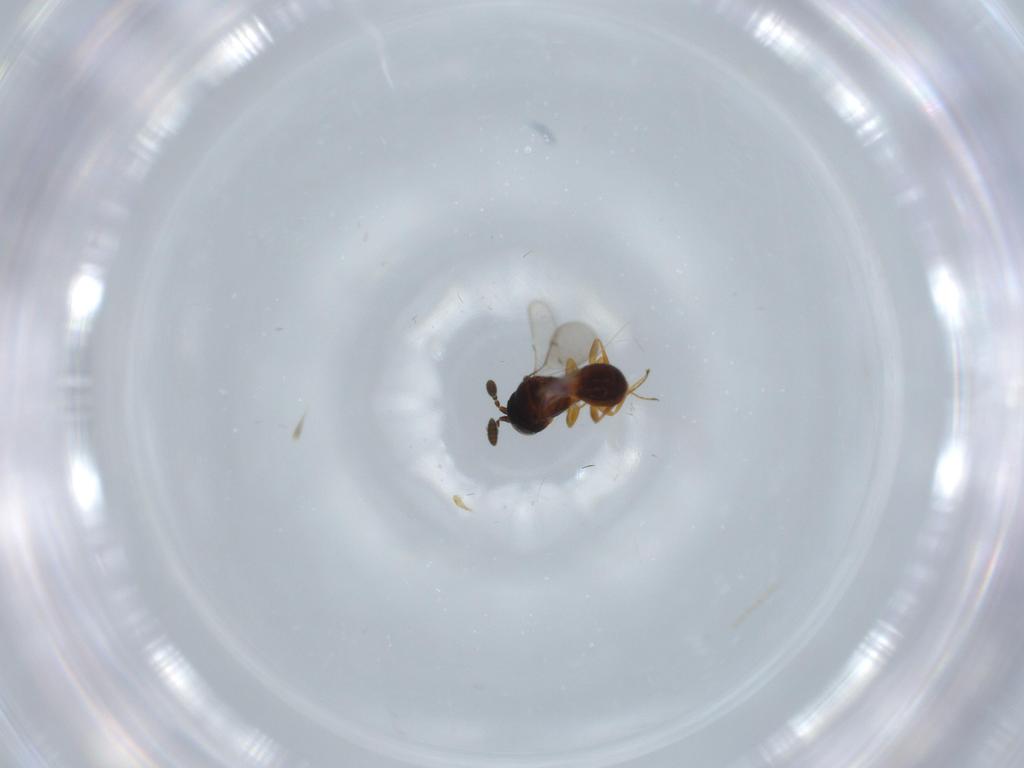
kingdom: Animalia
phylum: Arthropoda
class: Insecta
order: Hymenoptera
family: Scelionidae
